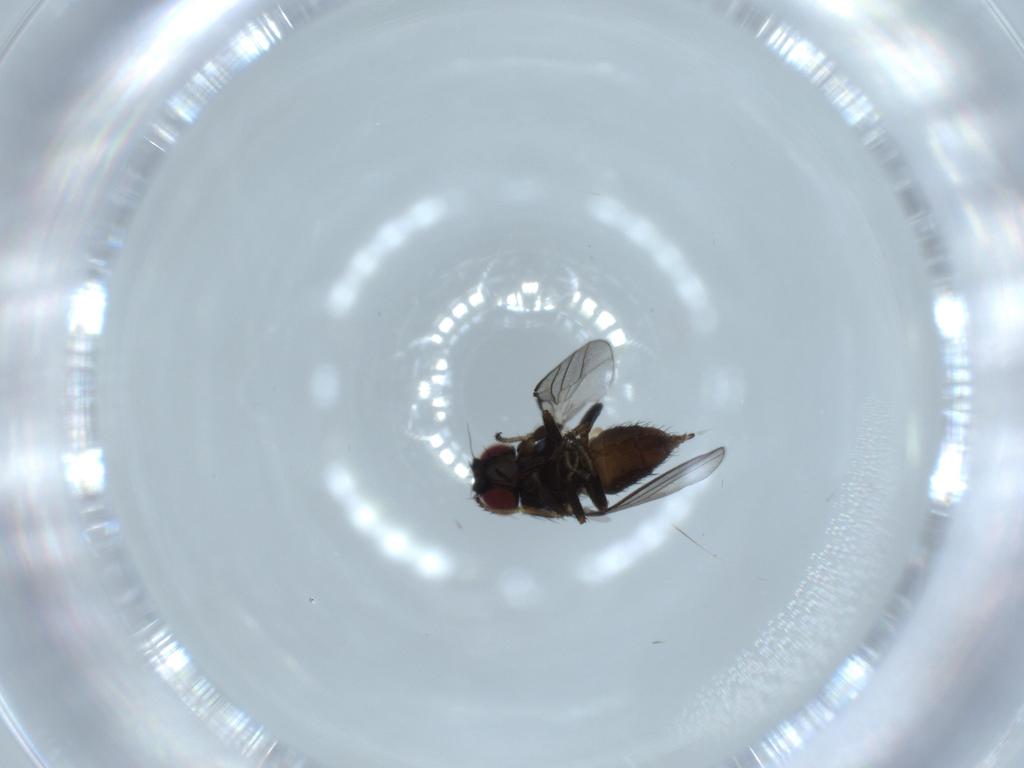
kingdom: Animalia
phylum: Arthropoda
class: Insecta
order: Diptera
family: Milichiidae
